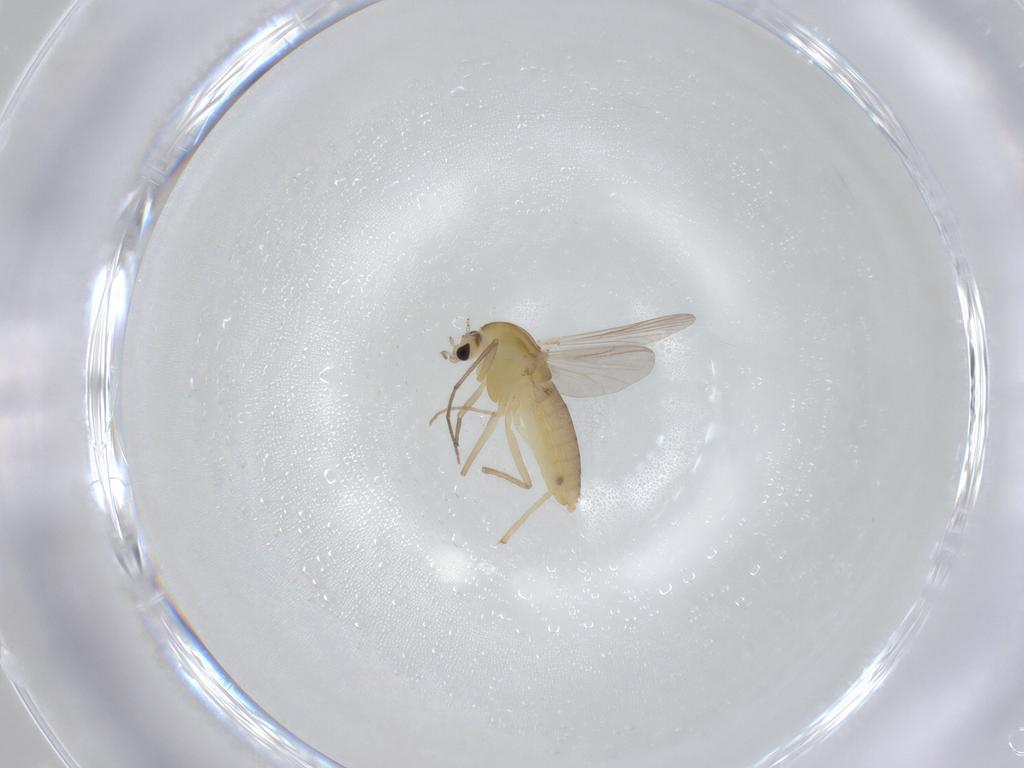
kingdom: Animalia
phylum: Arthropoda
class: Insecta
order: Diptera
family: Chironomidae
